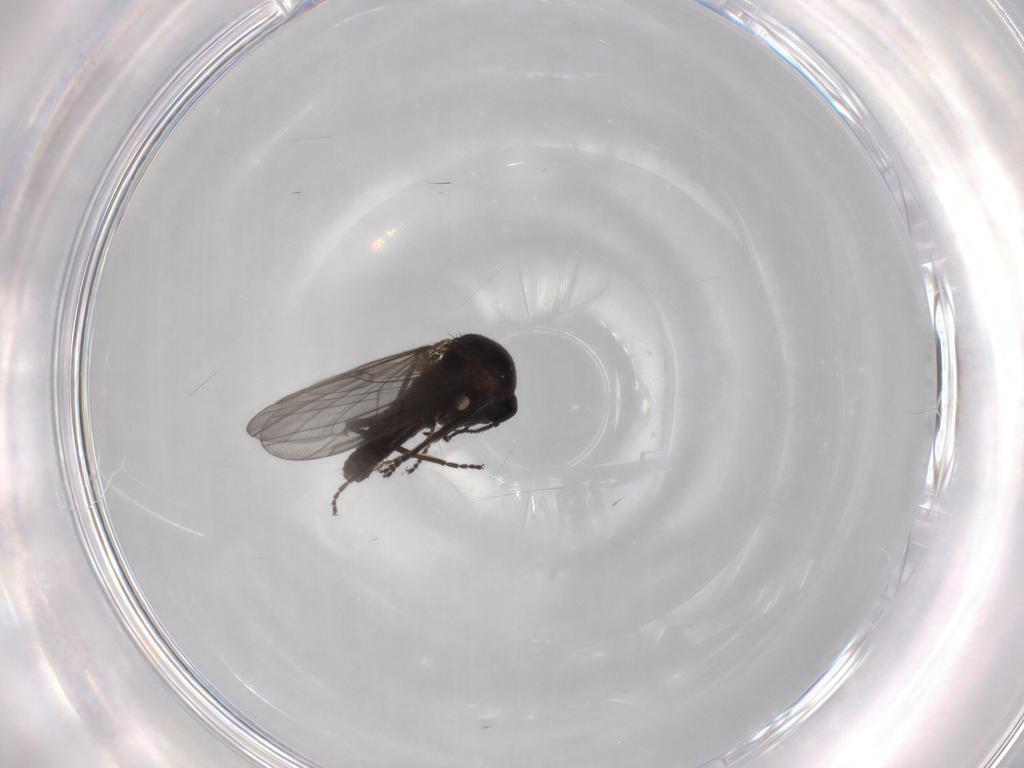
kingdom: Animalia
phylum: Arthropoda
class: Insecta
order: Diptera
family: Ceratopogonidae
